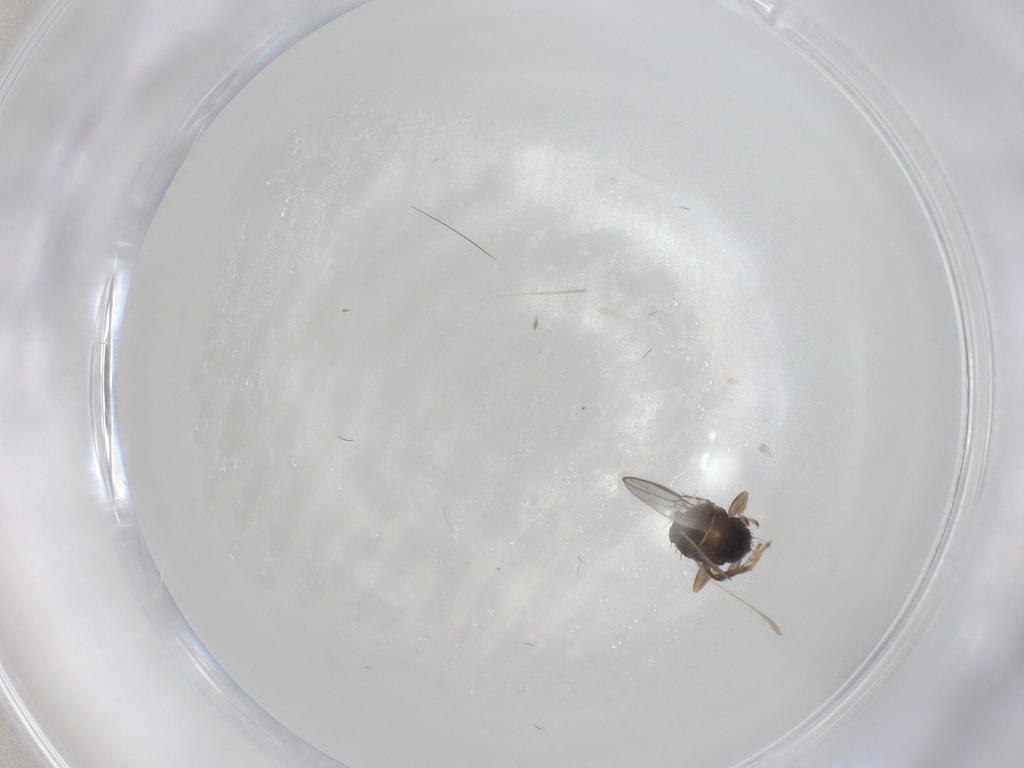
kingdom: Animalia
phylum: Arthropoda
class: Insecta
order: Diptera
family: Sphaeroceridae
